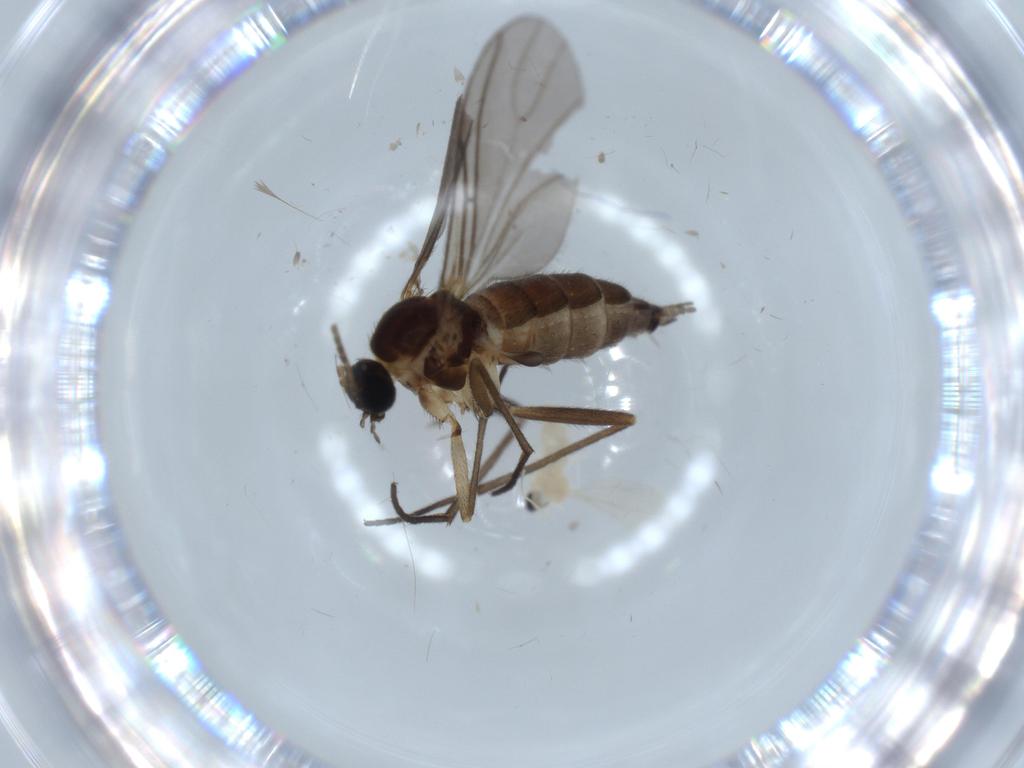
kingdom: Animalia
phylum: Arthropoda
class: Insecta
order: Diptera
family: Sciaridae
